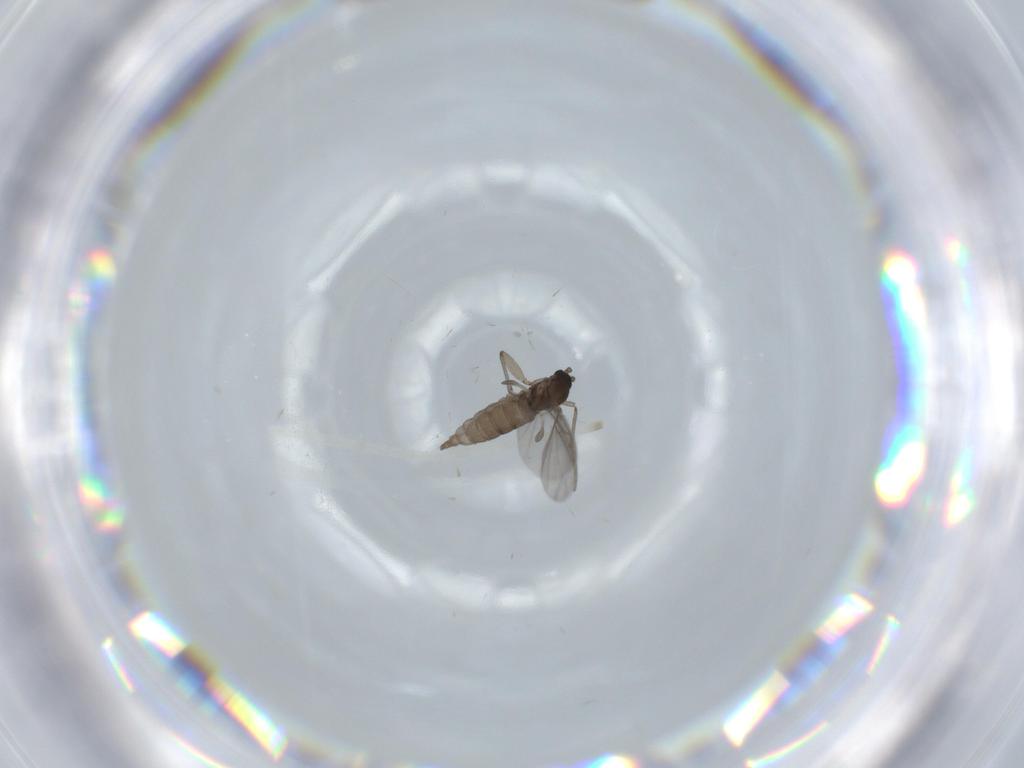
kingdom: Animalia
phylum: Arthropoda
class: Insecta
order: Diptera
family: Sciaridae
